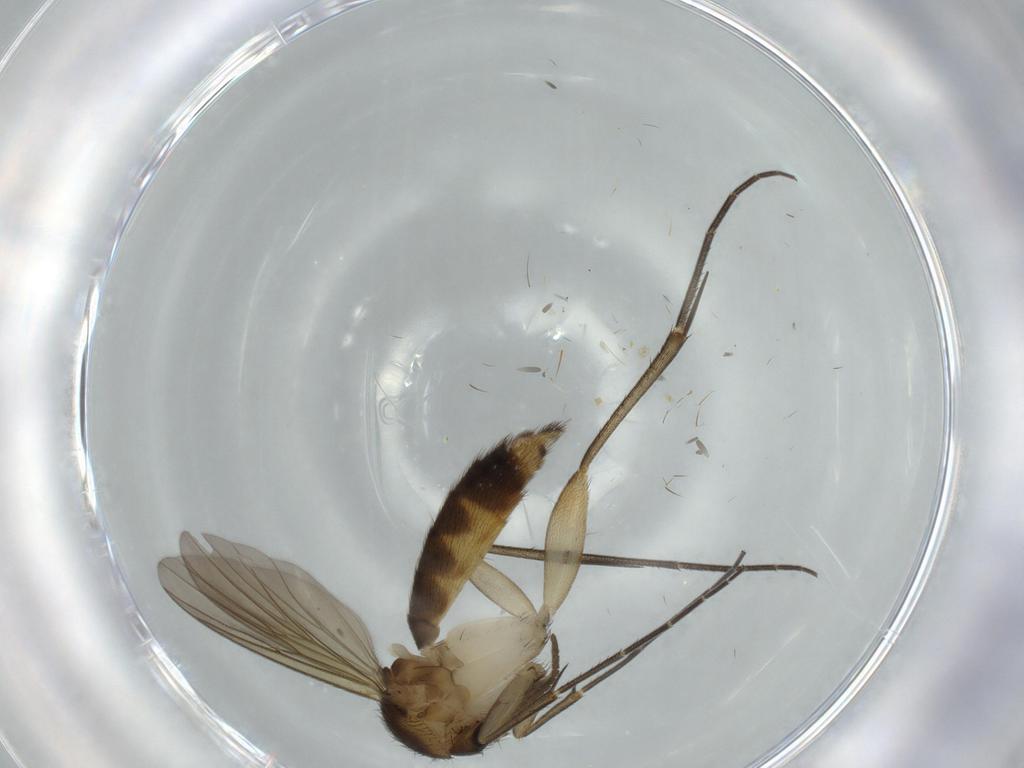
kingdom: Animalia
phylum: Arthropoda
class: Insecta
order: Diptera
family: Mycetophilidae
